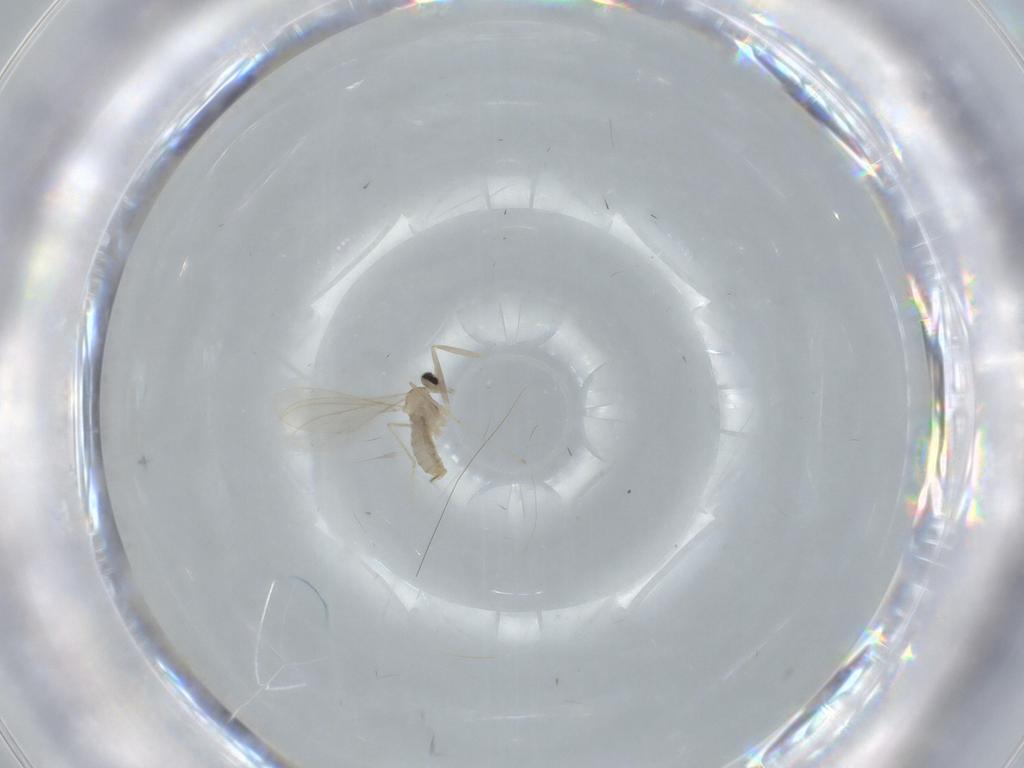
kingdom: Animalia
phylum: Arthropoda
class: Insecta
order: Diptera
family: Cecidomyiidae
